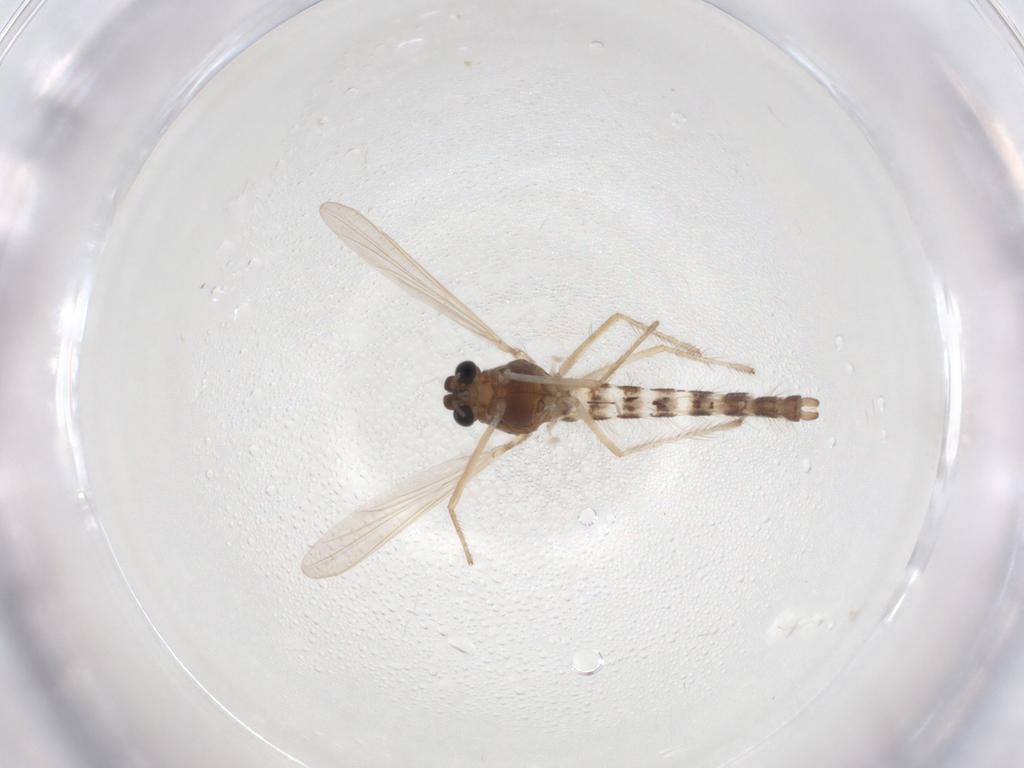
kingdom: Animalia
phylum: Arthropoda
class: Insecta
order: Diptera
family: Chironomidae
